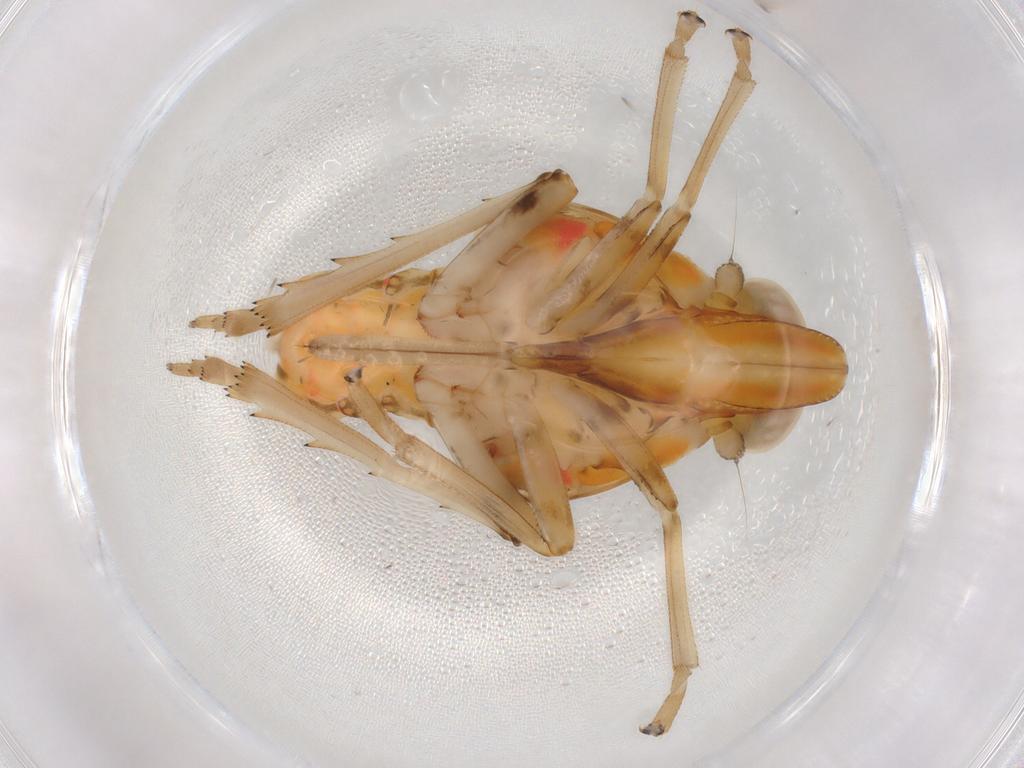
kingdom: Animalia
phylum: Arthropoda
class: Insecta
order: Hemiptera
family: Fulgoroidea_incertae_sedis
